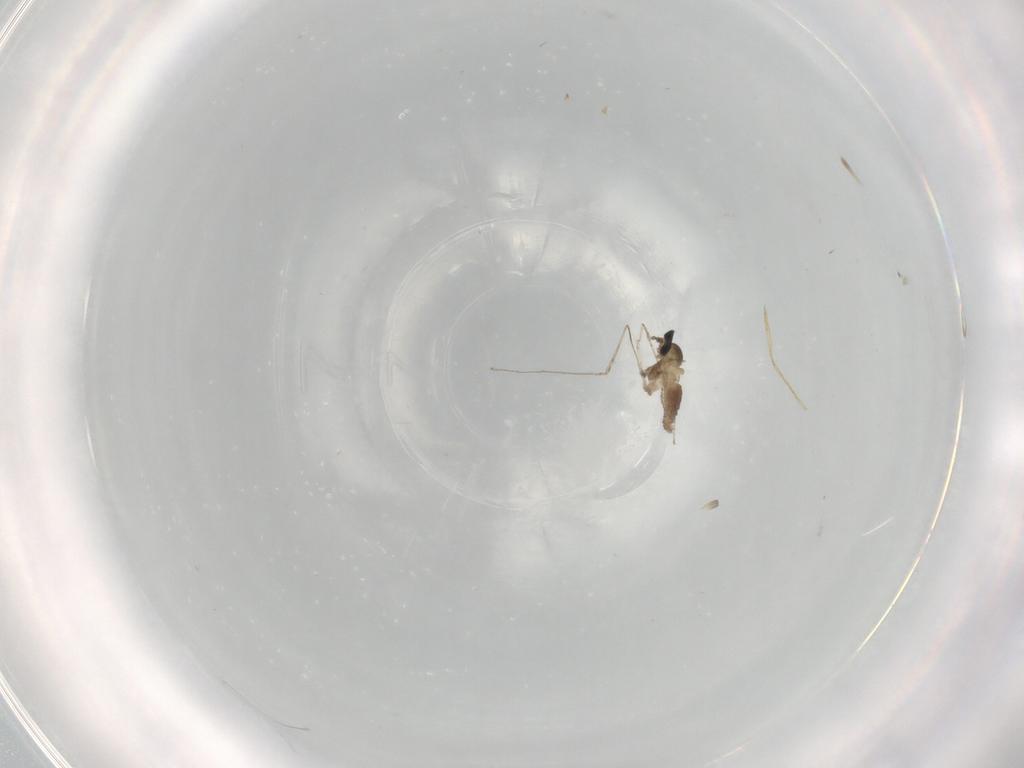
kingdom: Animalia
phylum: Arthropoda
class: Insecta
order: Diptera
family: Cecidomyiidae
